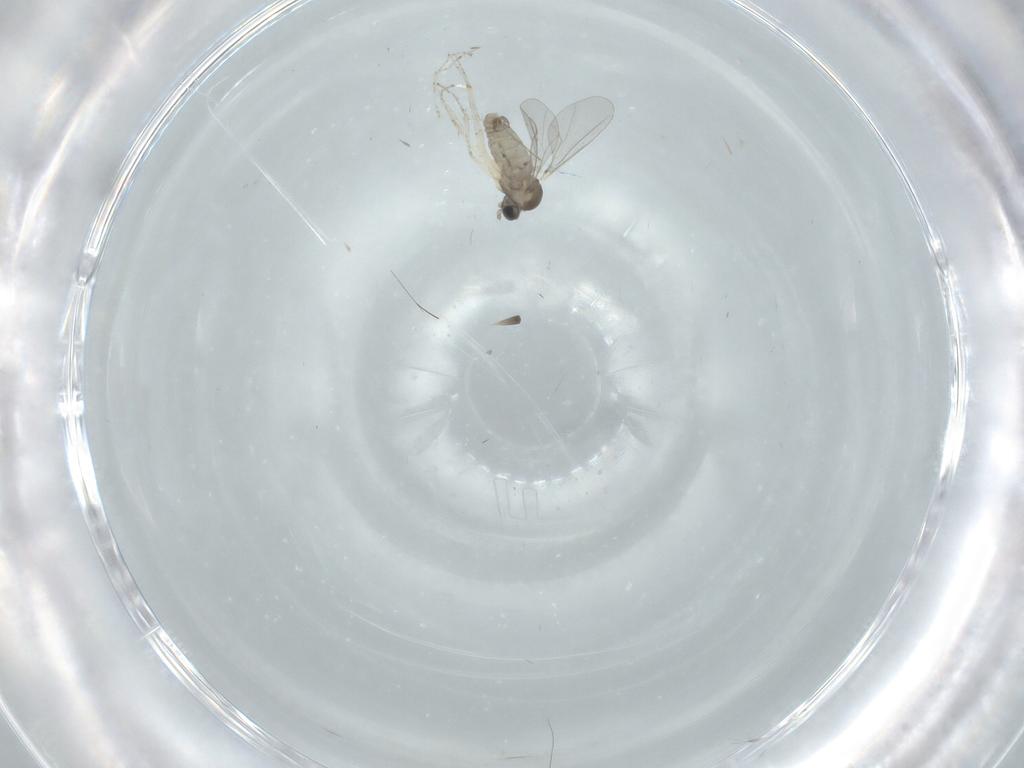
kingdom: Animalia
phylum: Arthropoda
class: Insecta
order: Diptera
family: Cecidomyiidae
